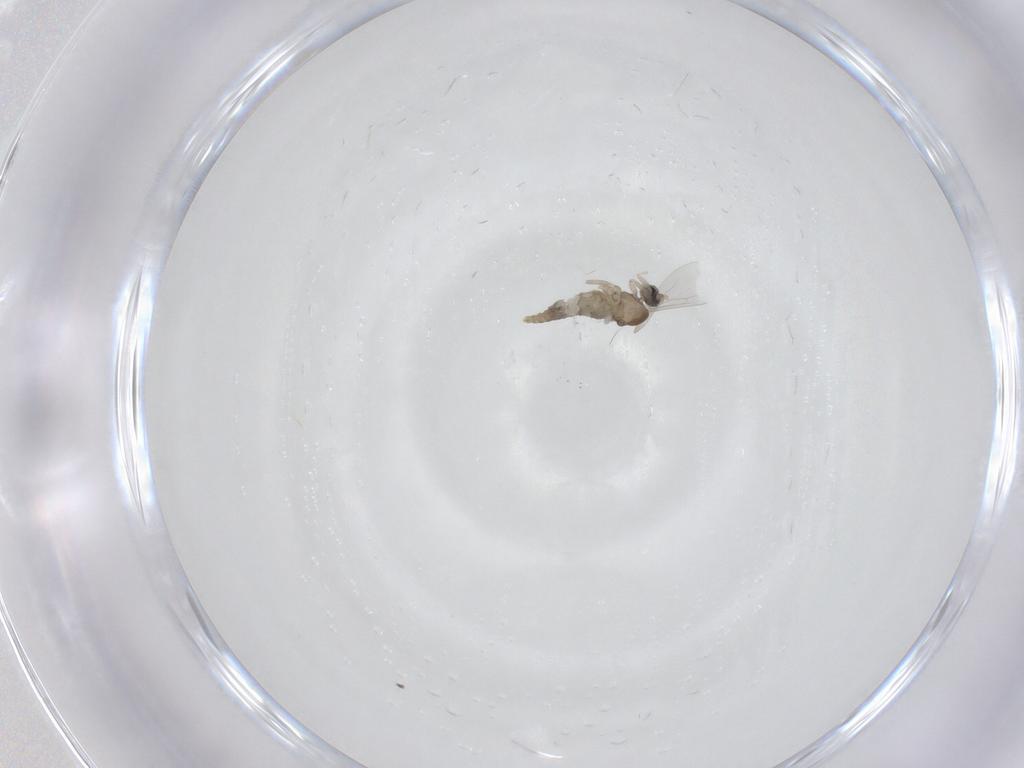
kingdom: Animalia
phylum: Arthropoda
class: Insecta
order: Diptera
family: Cecidomyiidae
